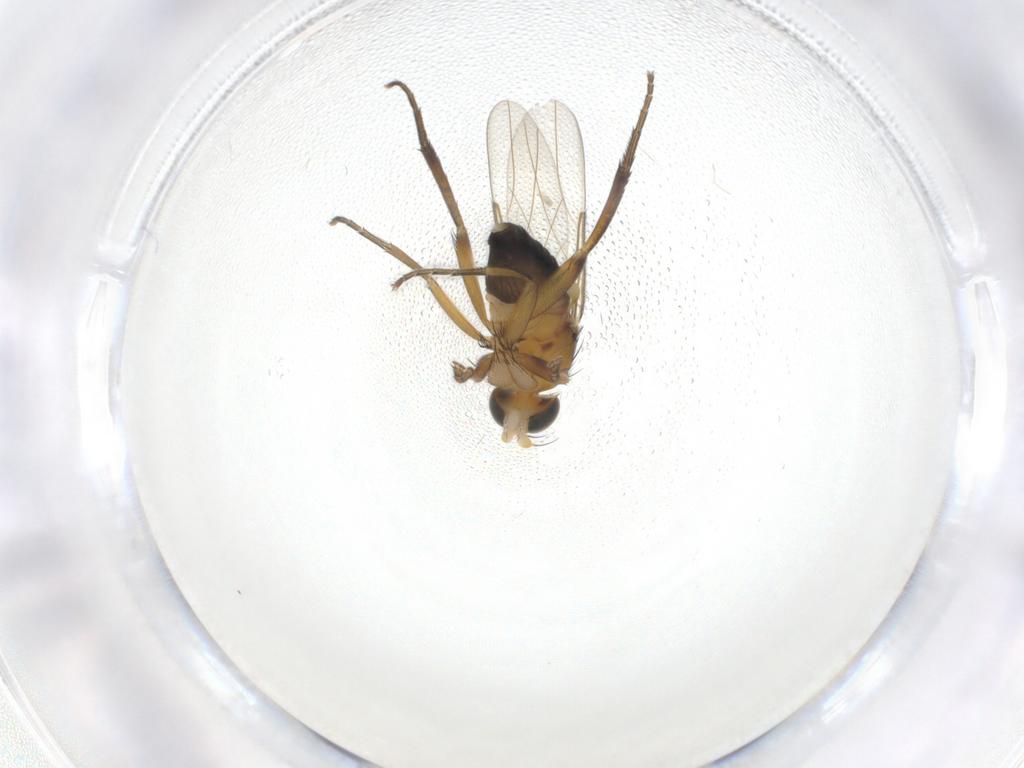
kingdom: Animalia
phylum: Arthropoda
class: Insecta
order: Diptera
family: Phoridae
